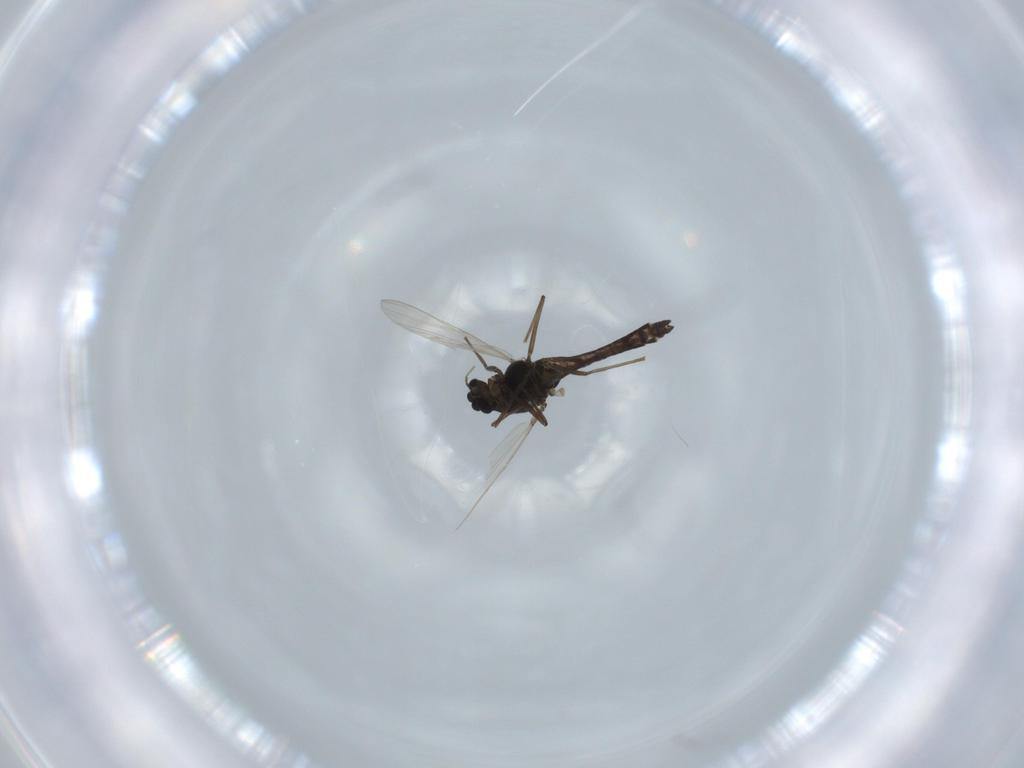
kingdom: Animalia
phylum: Arthropoda
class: Insecta
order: Diptera
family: Chironomidae
